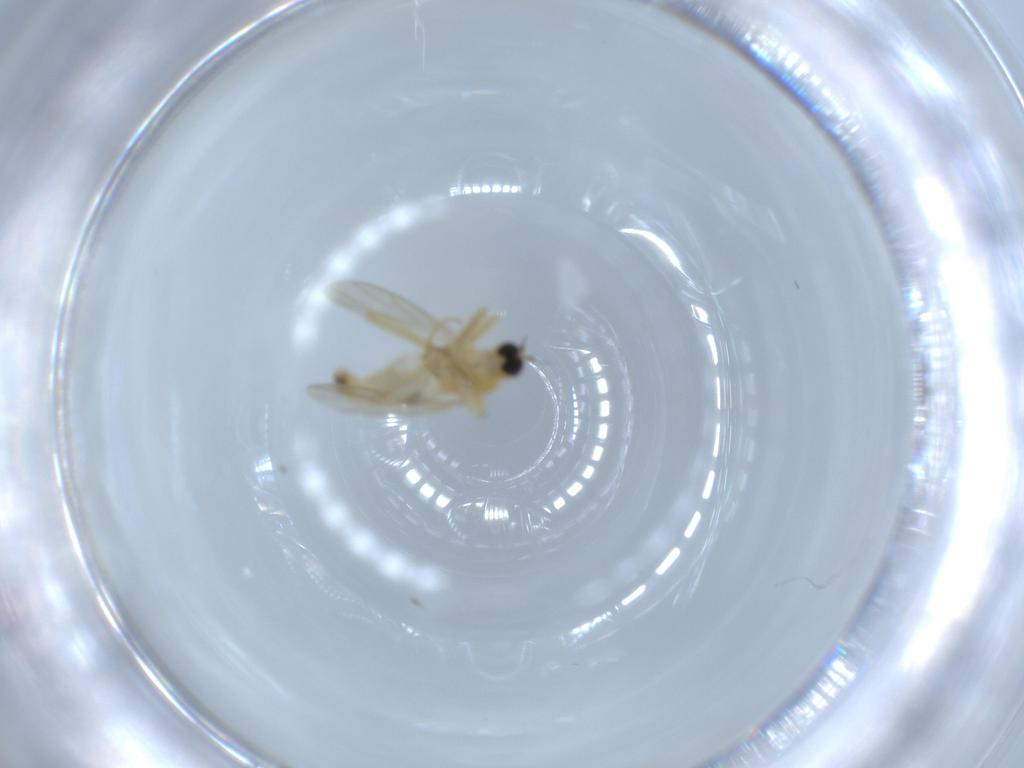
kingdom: Animalia
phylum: Arthropoda
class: Insecta
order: Diptera
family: Hybotidae
